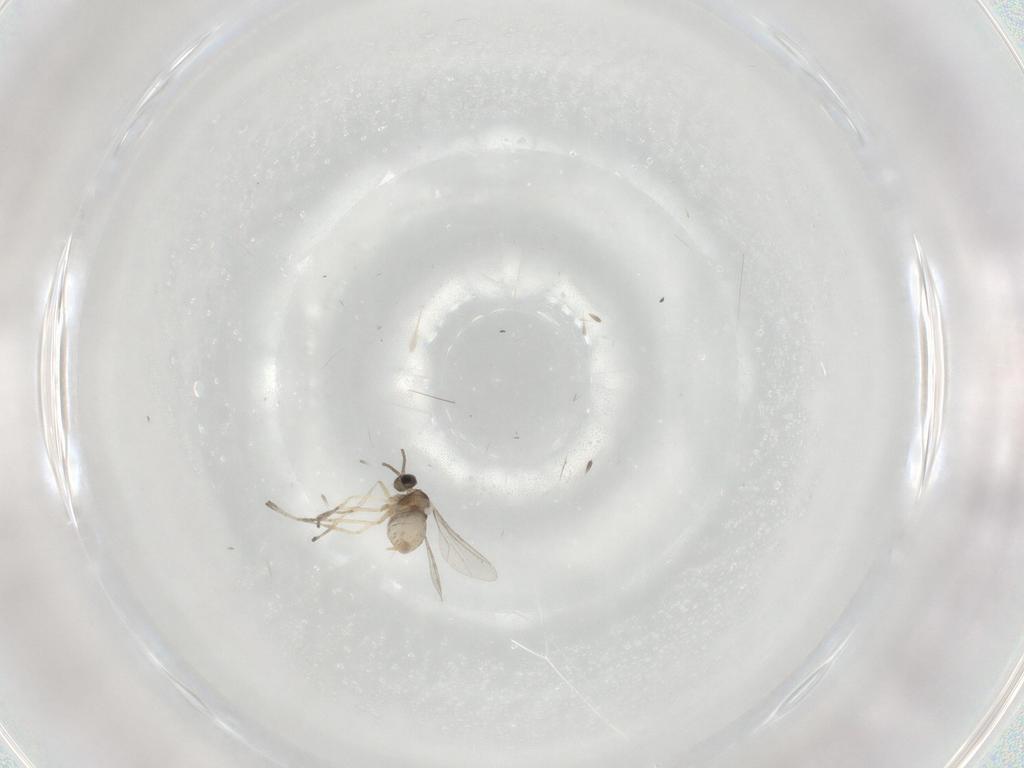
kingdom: Animalia
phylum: Arthropoda
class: Insecta
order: Diptera
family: Cecidomyiidae
